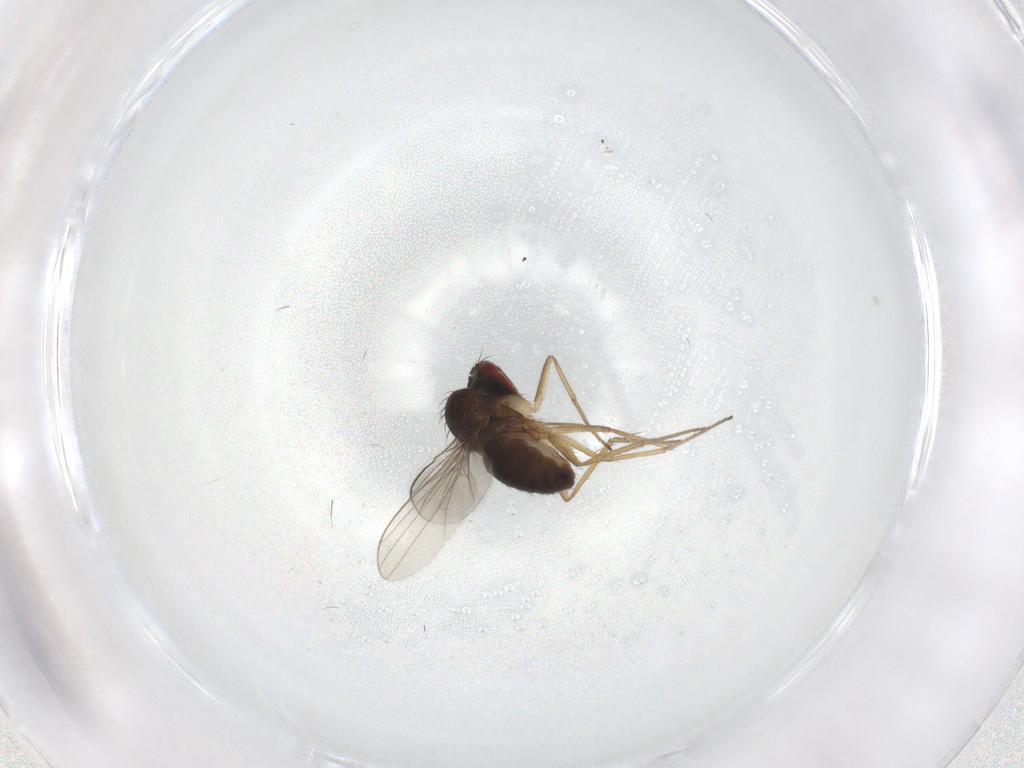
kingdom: Animalia
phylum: Arthropoda
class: Insecta
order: Diptera
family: Dolichopodidae
